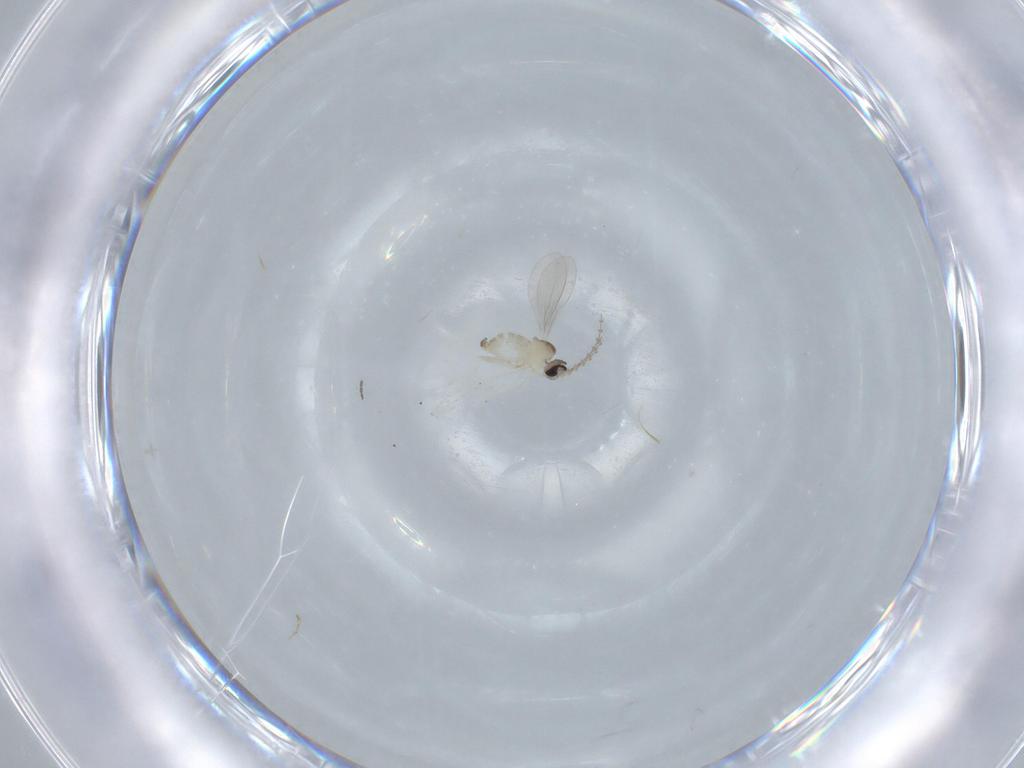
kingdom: Animalia
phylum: Arthropoda
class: Insecta
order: Diptera
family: Cecidomyiidae
